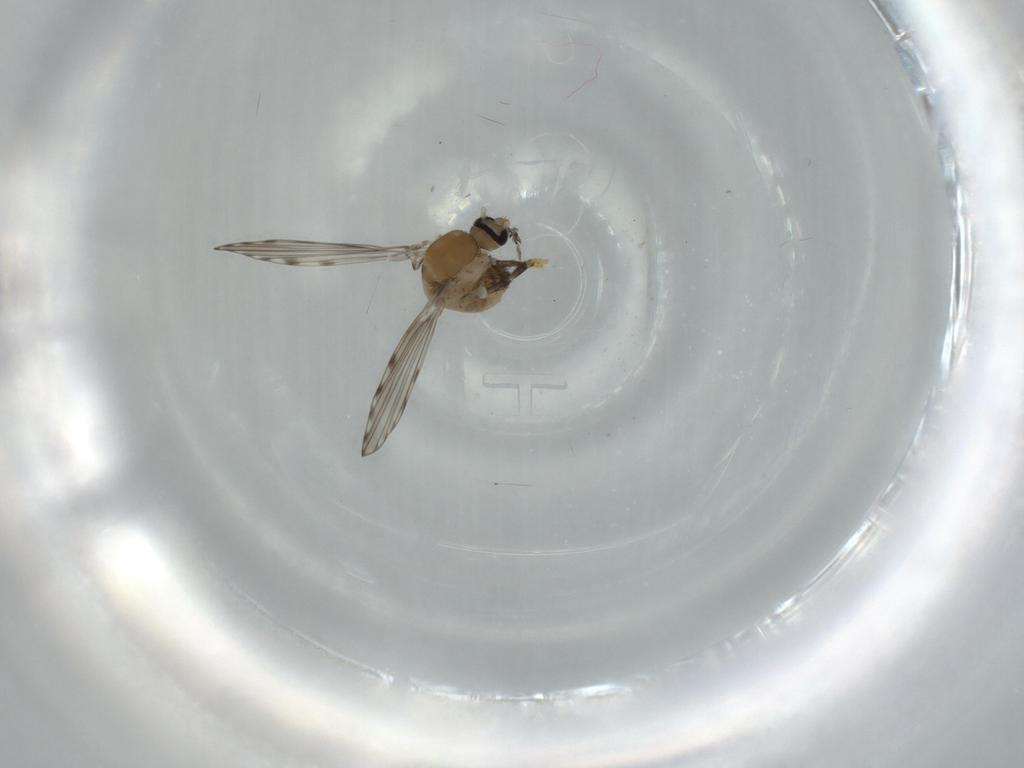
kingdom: Animalia
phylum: Arthropoda
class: Insecta
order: Diptera
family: Psychodidae
